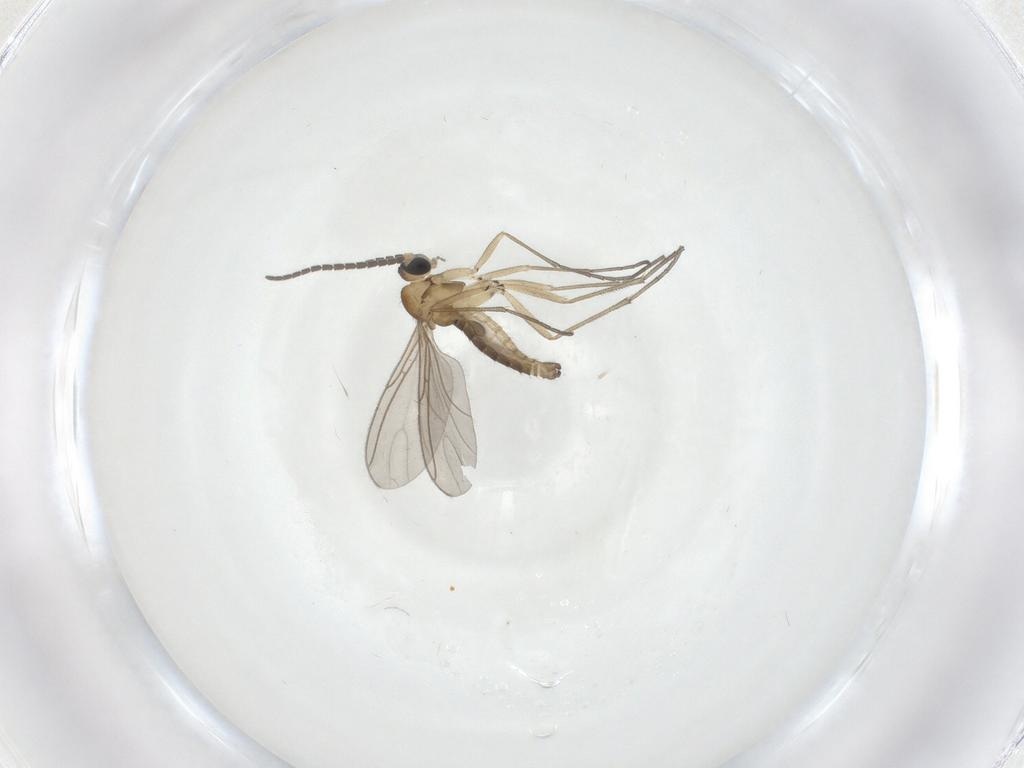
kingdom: Animalia
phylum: Arthropoda
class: Insecta
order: Diptera
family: Sciaridae
